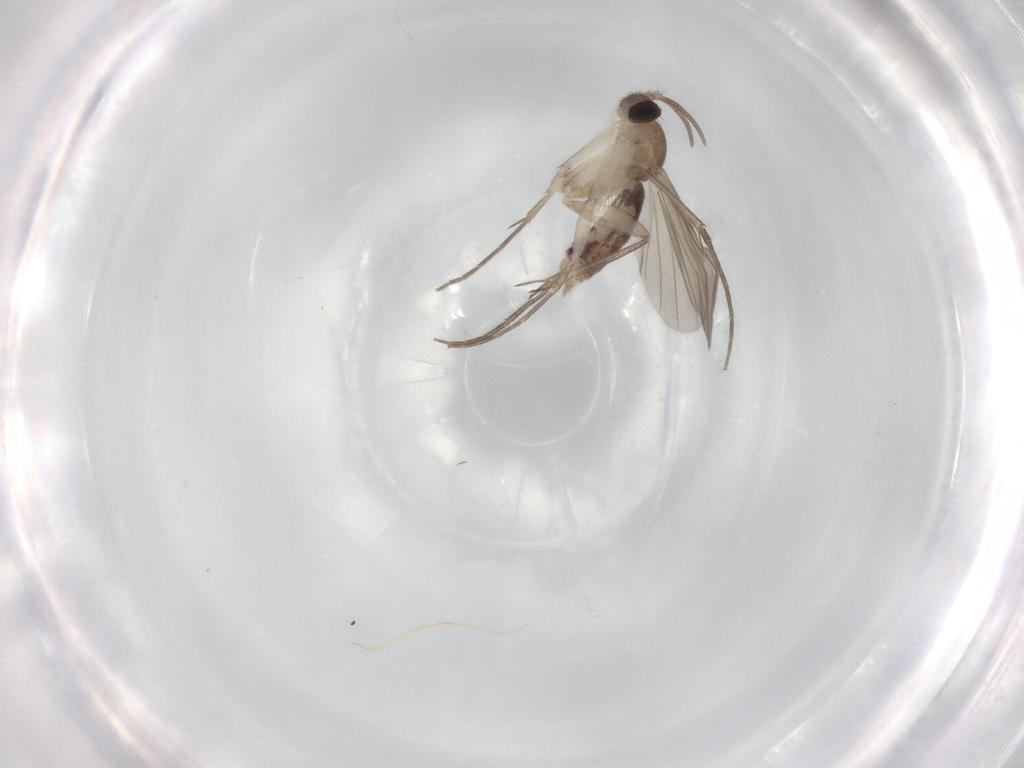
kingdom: Animalia
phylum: Arthropoda
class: Insecta
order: Diptera
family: Mycetophilidae
